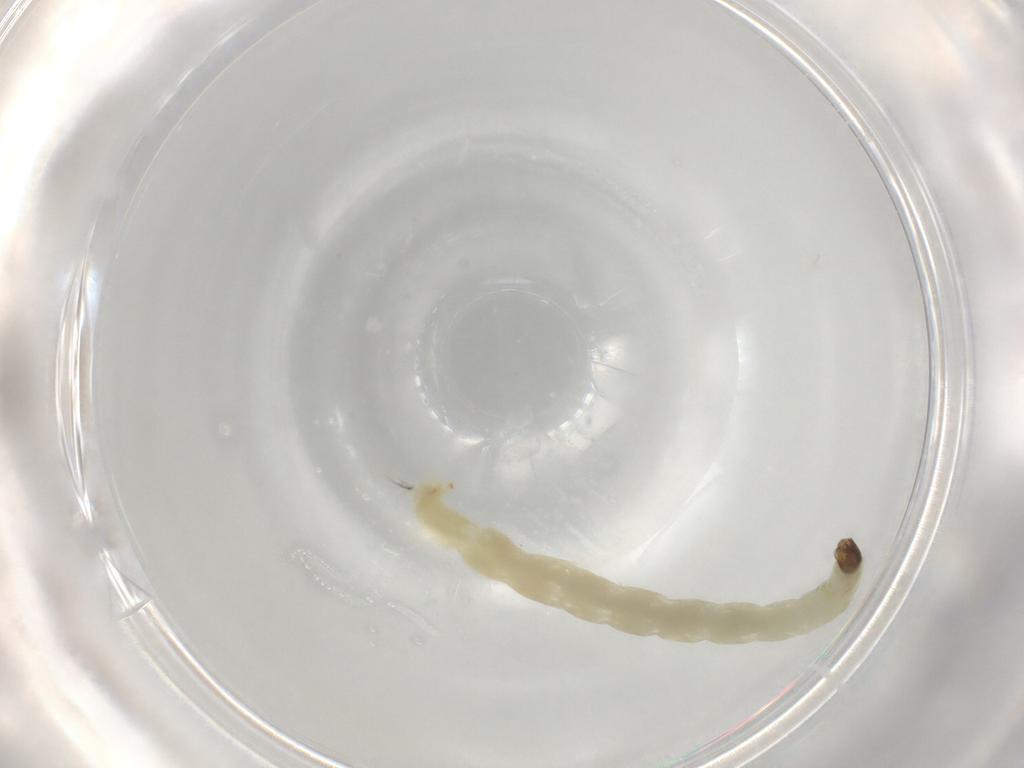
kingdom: Animalia
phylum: Arthropoda
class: Insecta
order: Diptera
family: Chironomidae
